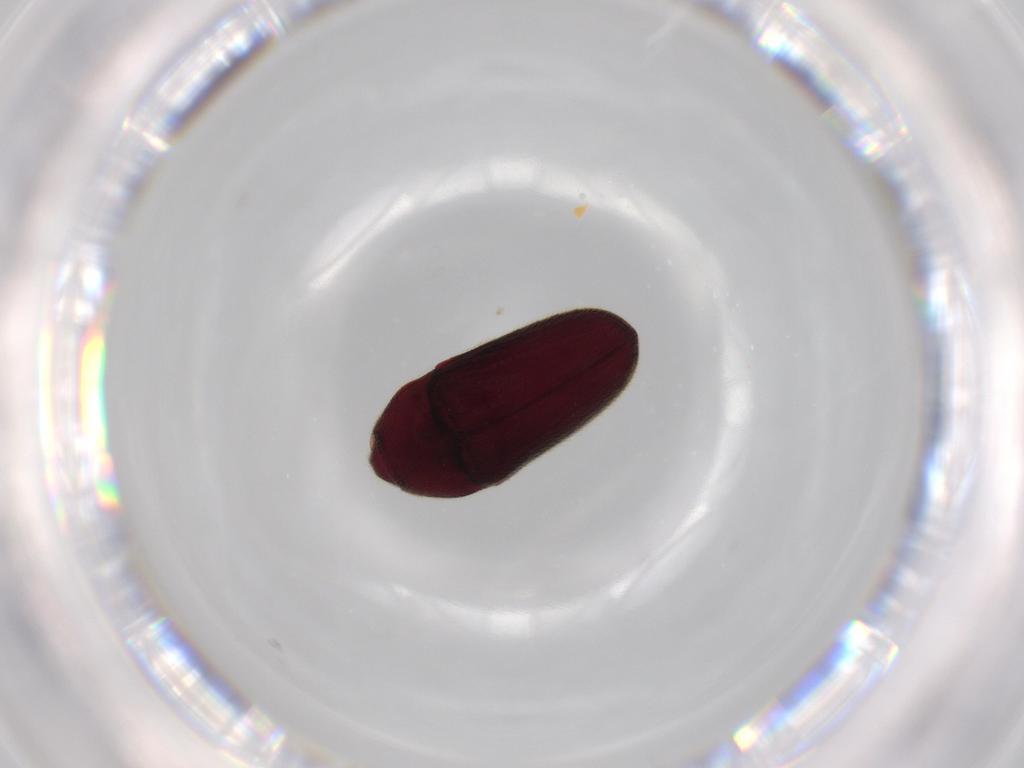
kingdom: Animalia
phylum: Arthropoda
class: Insecta
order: Coleoptera
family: Throscidae
